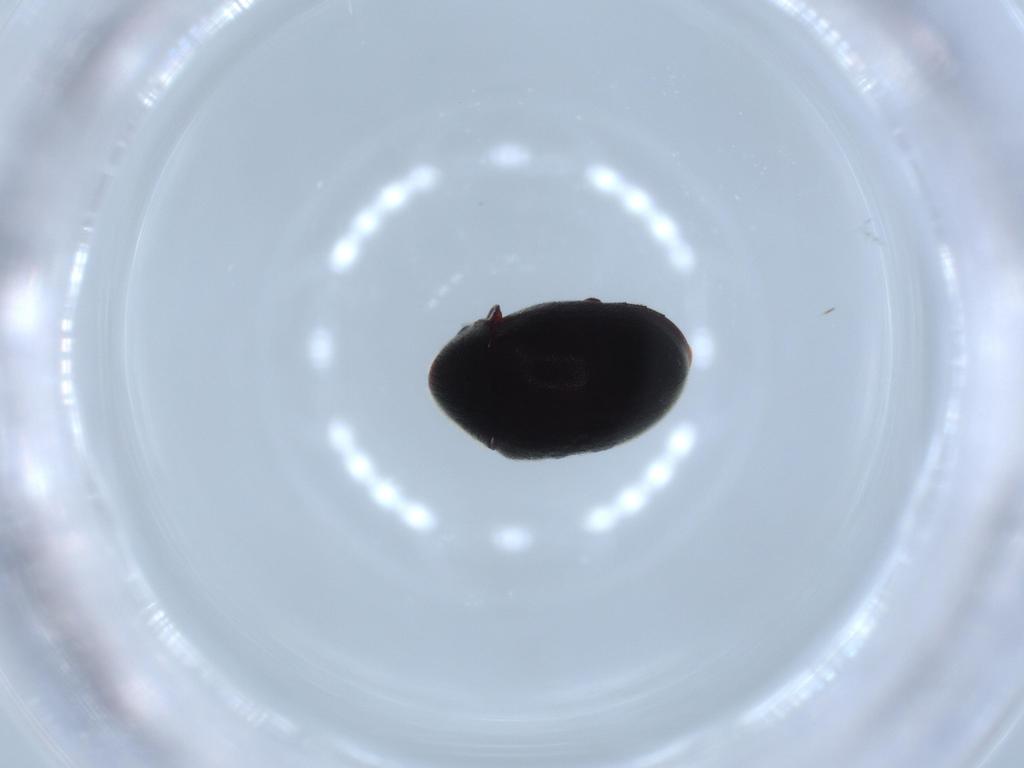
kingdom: Animalia
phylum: Arthropoda
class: Insecta
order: Coleoptera
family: Ptinidae
